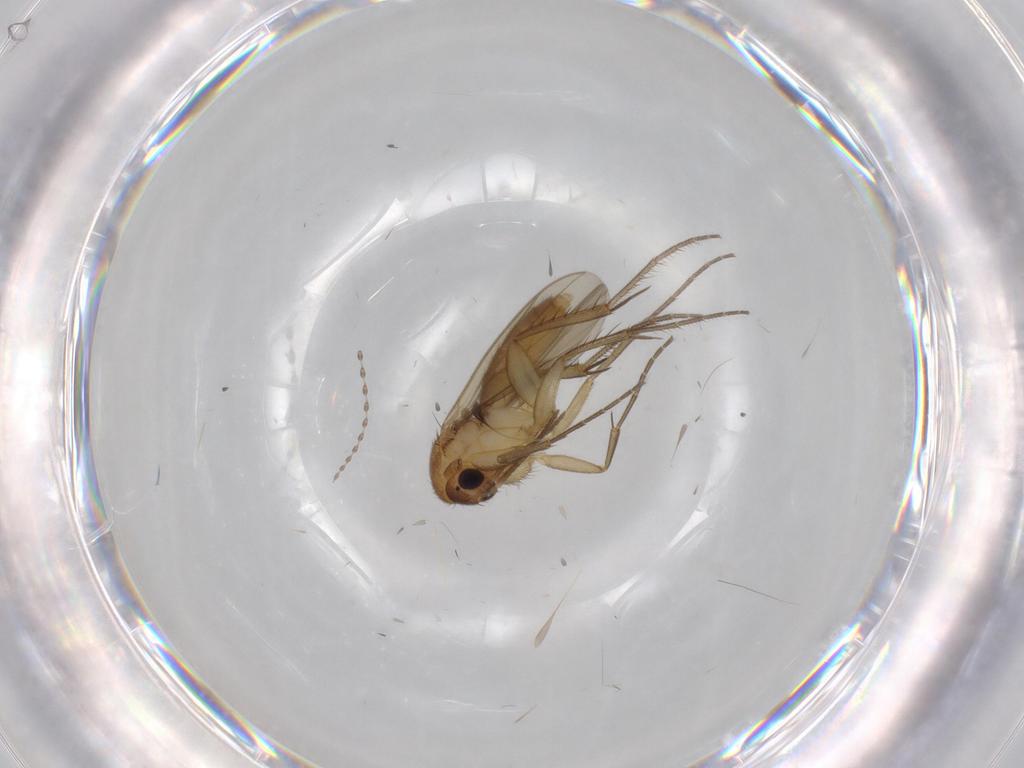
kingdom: Animalia
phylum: Arthropoda
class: Insecta
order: Diptera
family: Mycetophilidae
